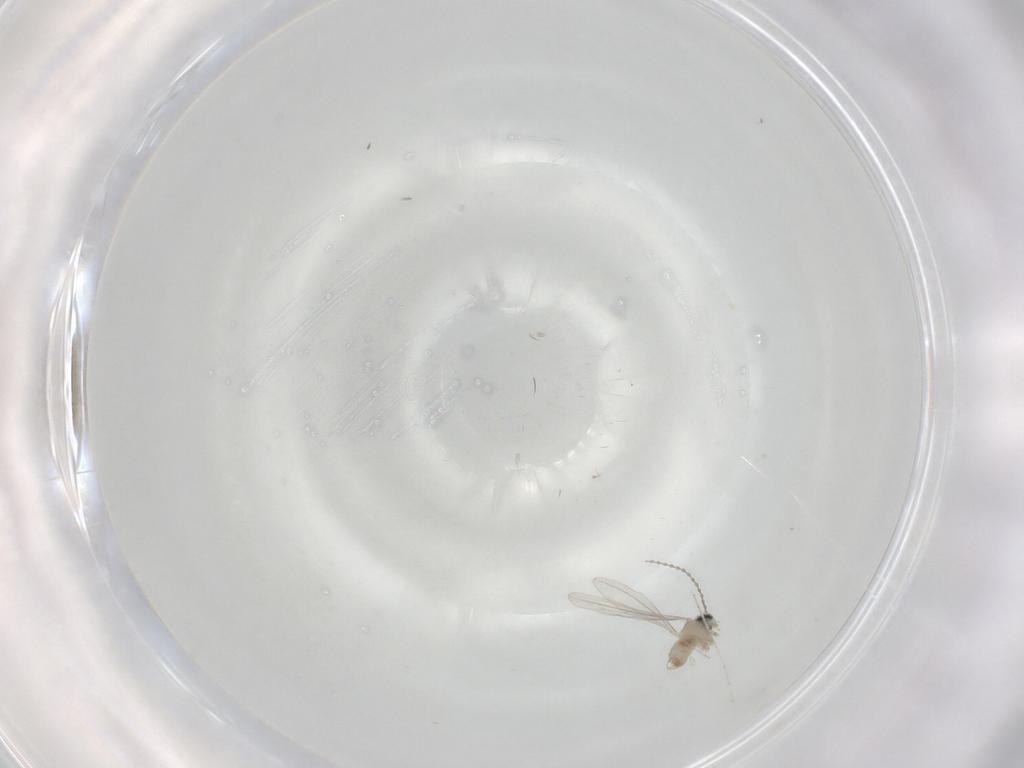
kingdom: Animalia
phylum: Arthropoda
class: Insecta
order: Diptera
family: Cecidomyiidae
